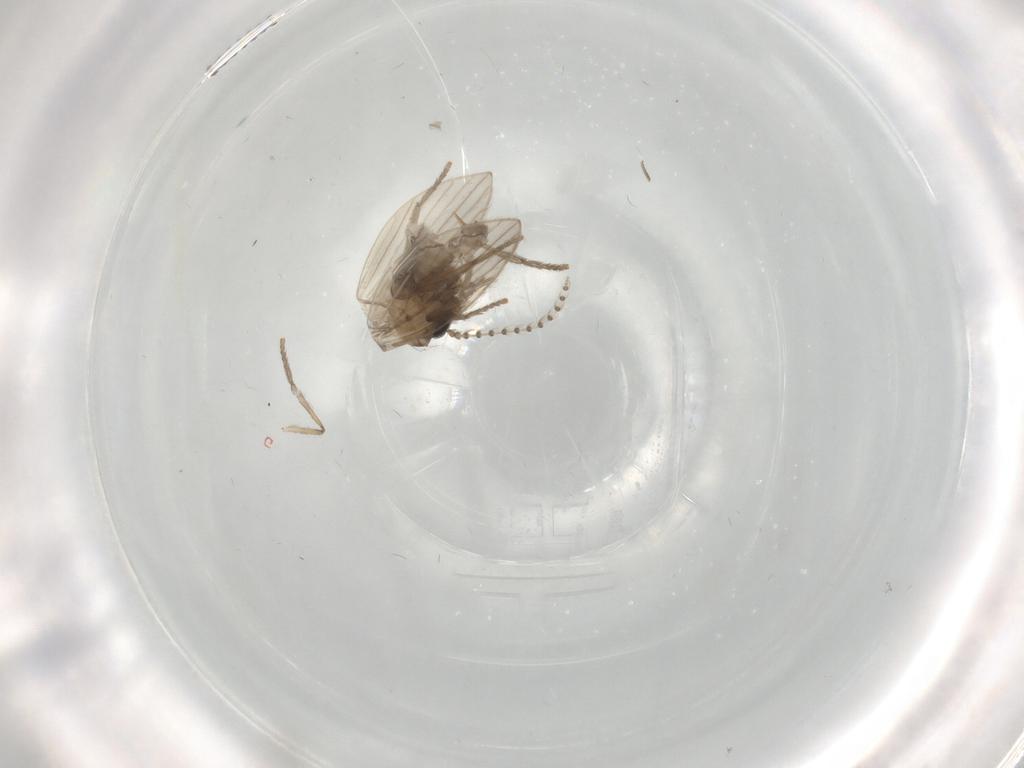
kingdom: Animalia
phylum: Arthropoda
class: Insecta
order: Diptera
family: Psychodidae
